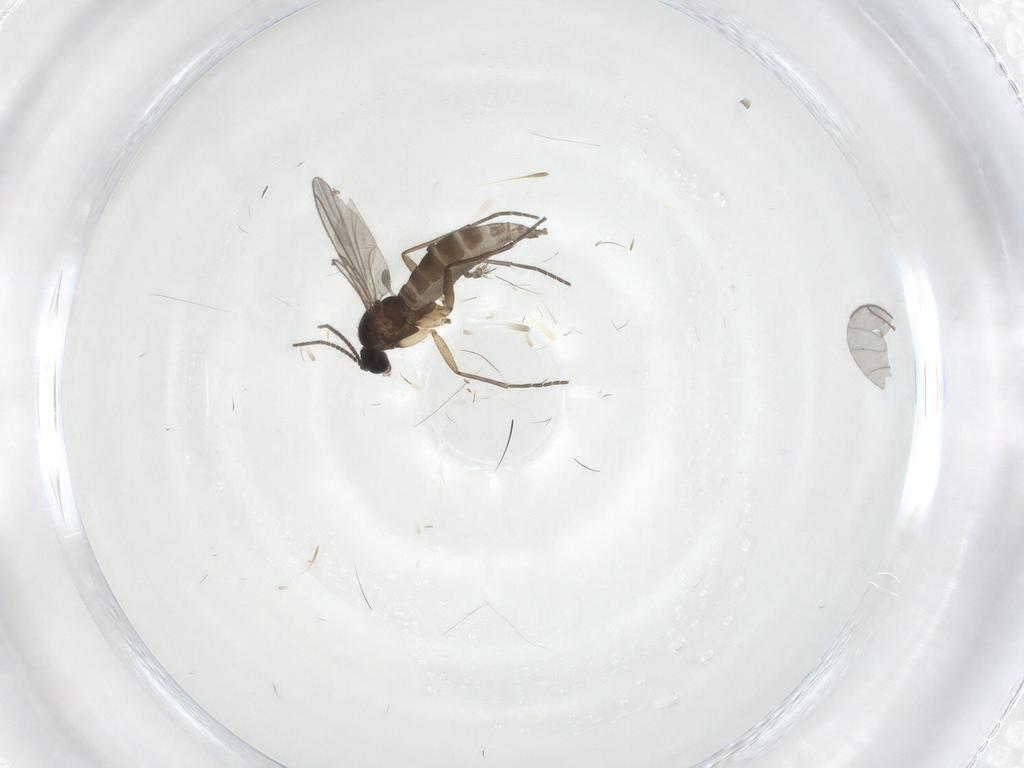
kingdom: Animalia
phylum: Arthropoda
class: Insecta
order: Diptera
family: Sciaridae
